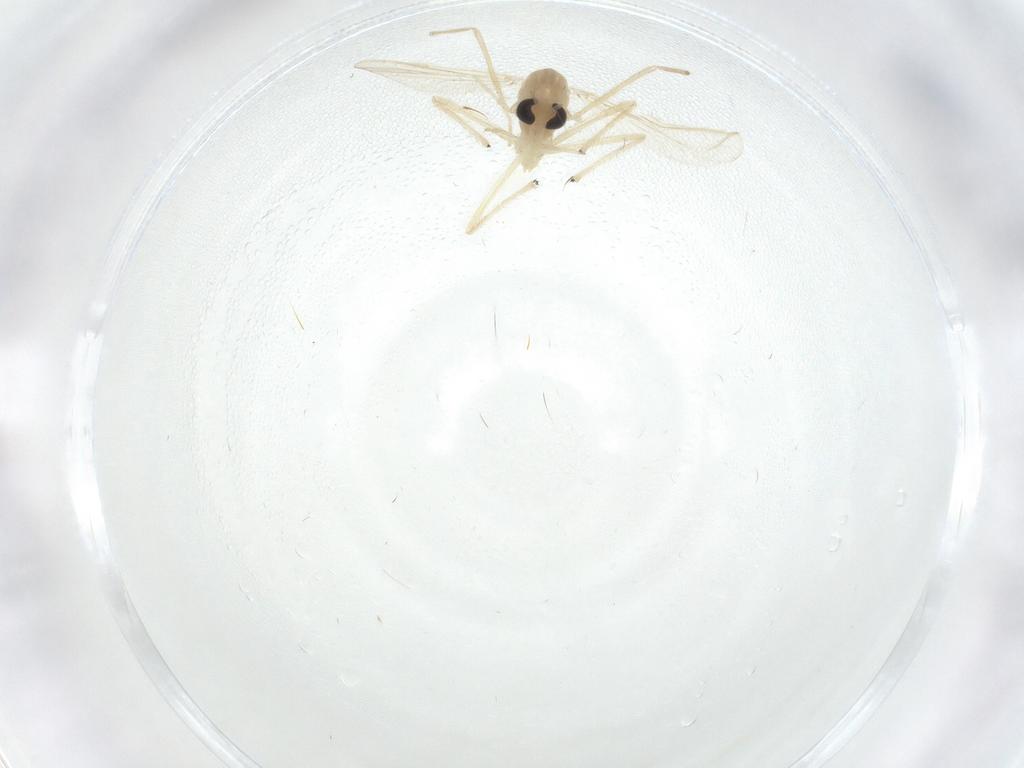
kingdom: Animalia
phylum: Arthropoda
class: Insecta
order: Diptera
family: Chironomidae
